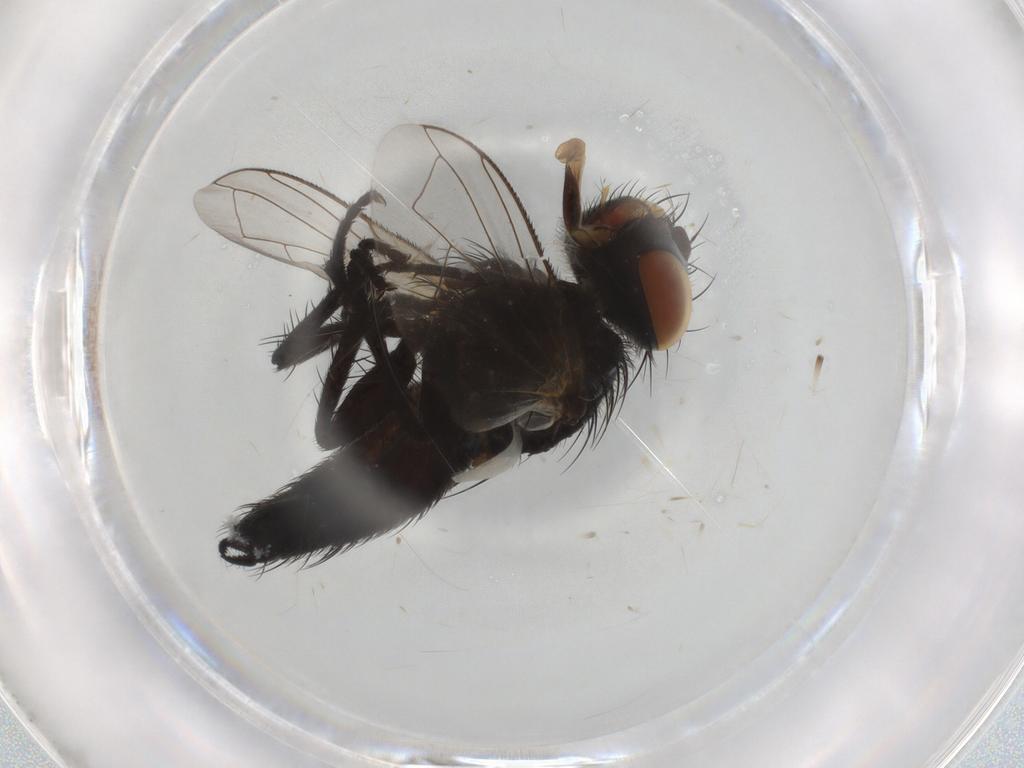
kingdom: Animalia
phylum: Arthropoda
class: Insecta
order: Diptera
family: Tachinidae
